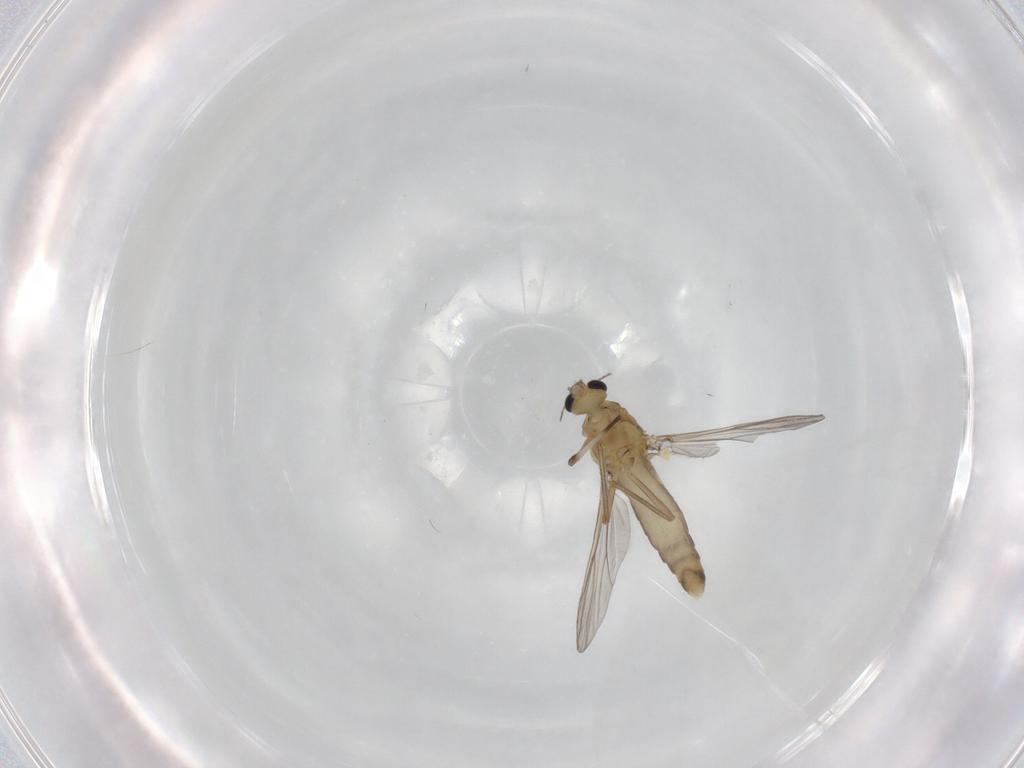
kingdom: Animalia
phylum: Arthropoda
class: Insecta
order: Diptera
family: Chironomidae
